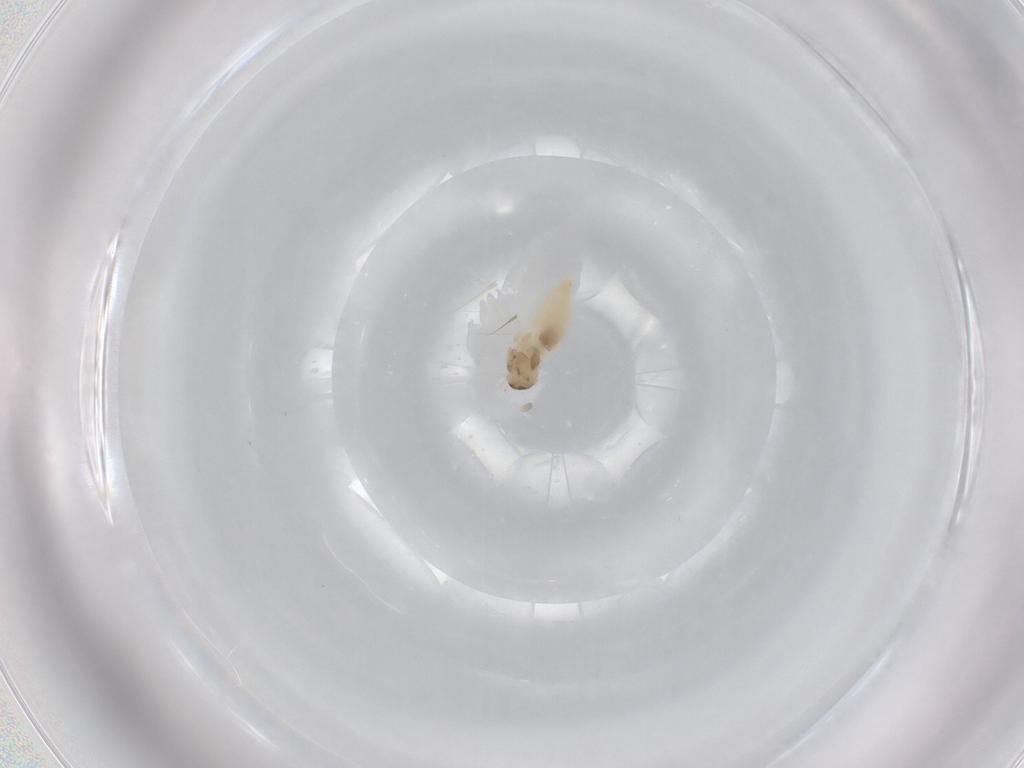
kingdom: Animalia
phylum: Arthropoda
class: Insecta
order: Diptera
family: Cecidomyiidae
